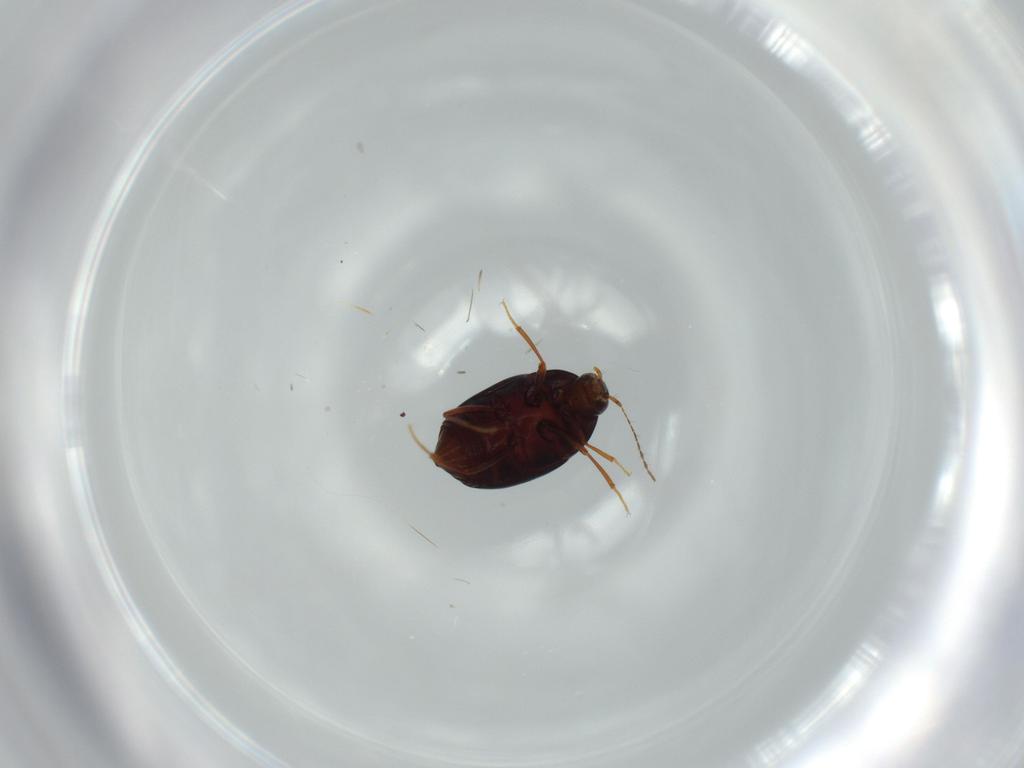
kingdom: Animalia
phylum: Arthropoda
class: Insecta
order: Coleoptera
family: Staphylinidae
